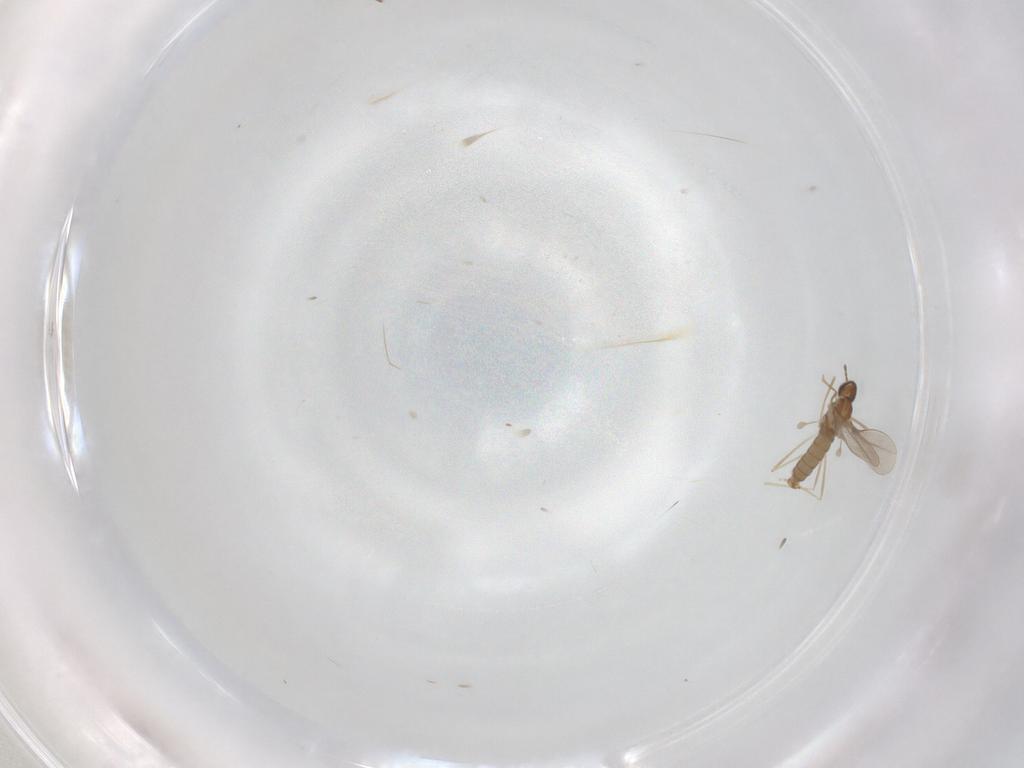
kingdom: Animalia
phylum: Arthropoda
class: Insecta
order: Diptera
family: Cecidomyiidae
